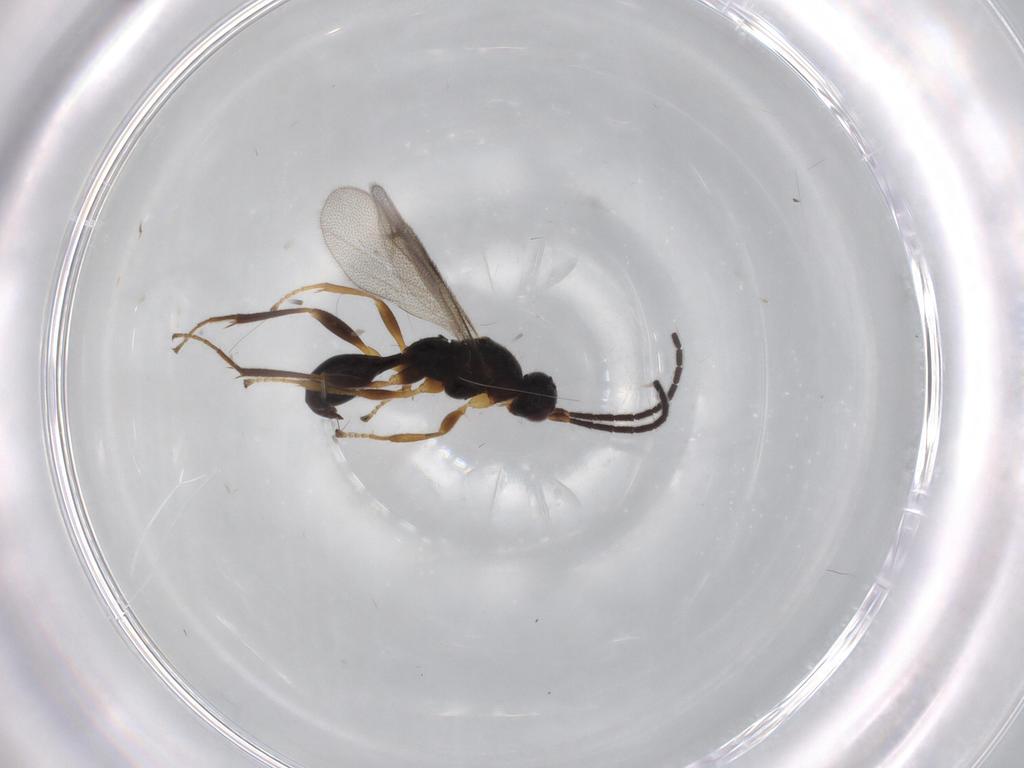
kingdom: Animalia
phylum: Arthropoda
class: Insecta
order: Hymenoptera
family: Proctotrupidae
